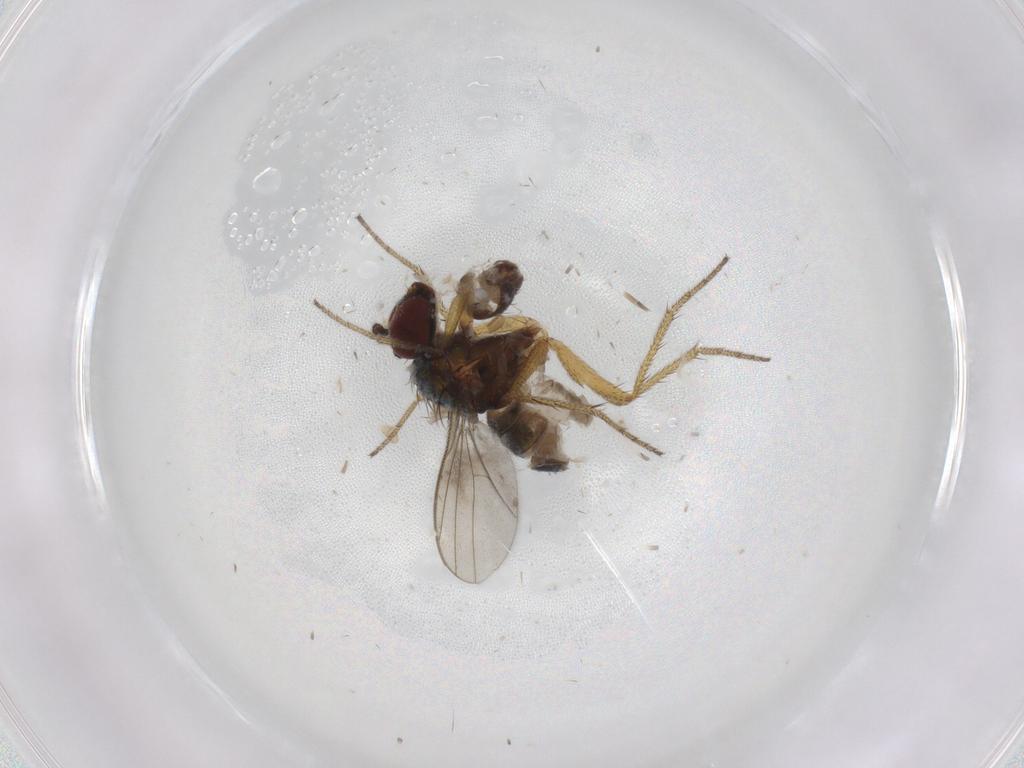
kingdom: Animalia
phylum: Arthropoda
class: Insecta
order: Diptera
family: Chironomidae
